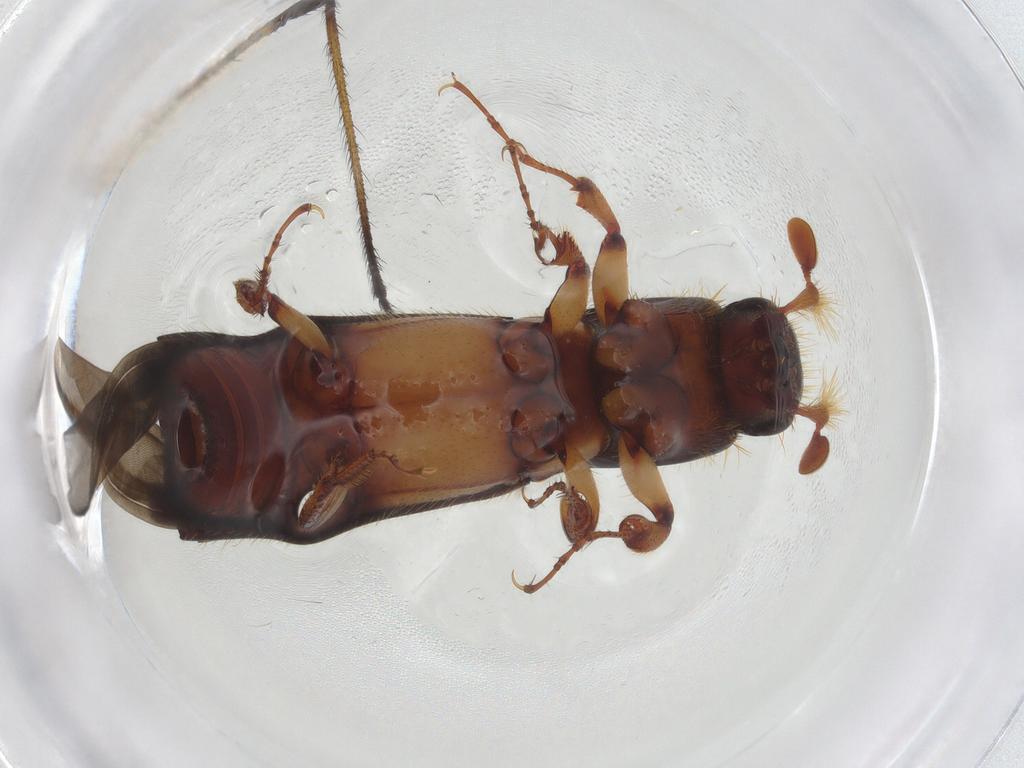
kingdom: Animalia
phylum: Arthropoda
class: Insecta
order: Coleoptera
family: Curculionidae
